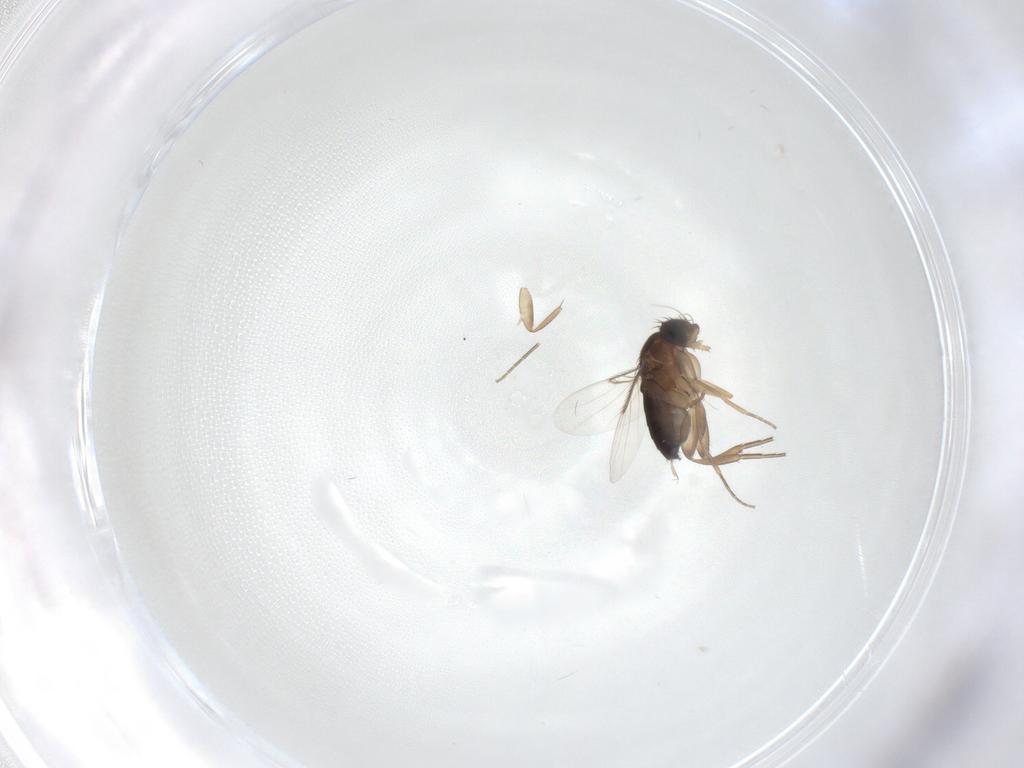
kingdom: Animalia
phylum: Arthropoda
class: Insecta
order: Diptera
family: Phoridae
